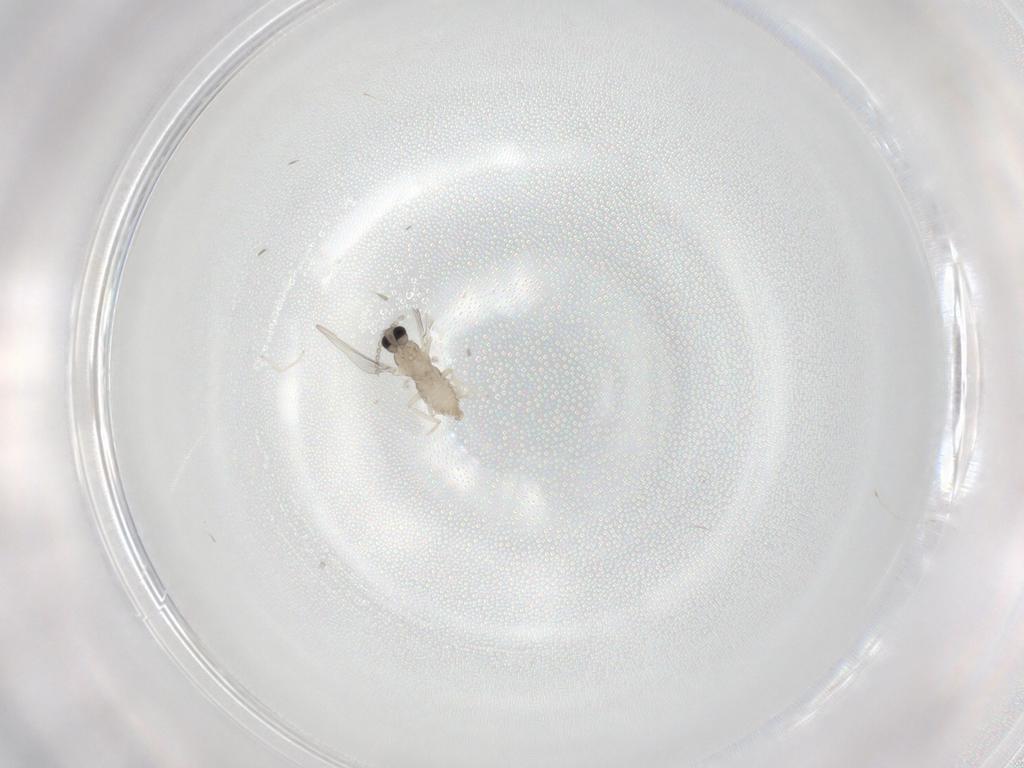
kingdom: Animalia
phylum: Arthropoda
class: Insecta
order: Diptera
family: Cecidomyiidae
